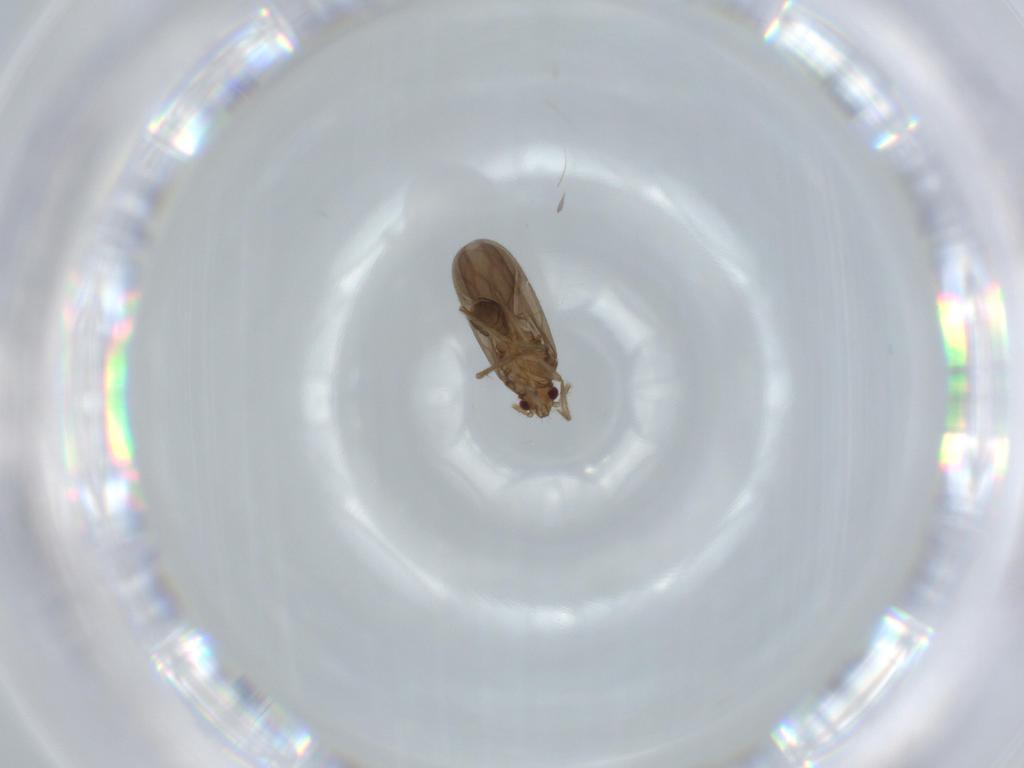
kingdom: Animalia
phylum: Arthropoda
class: Insecta
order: Hemiptera
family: Ceratocombidae
